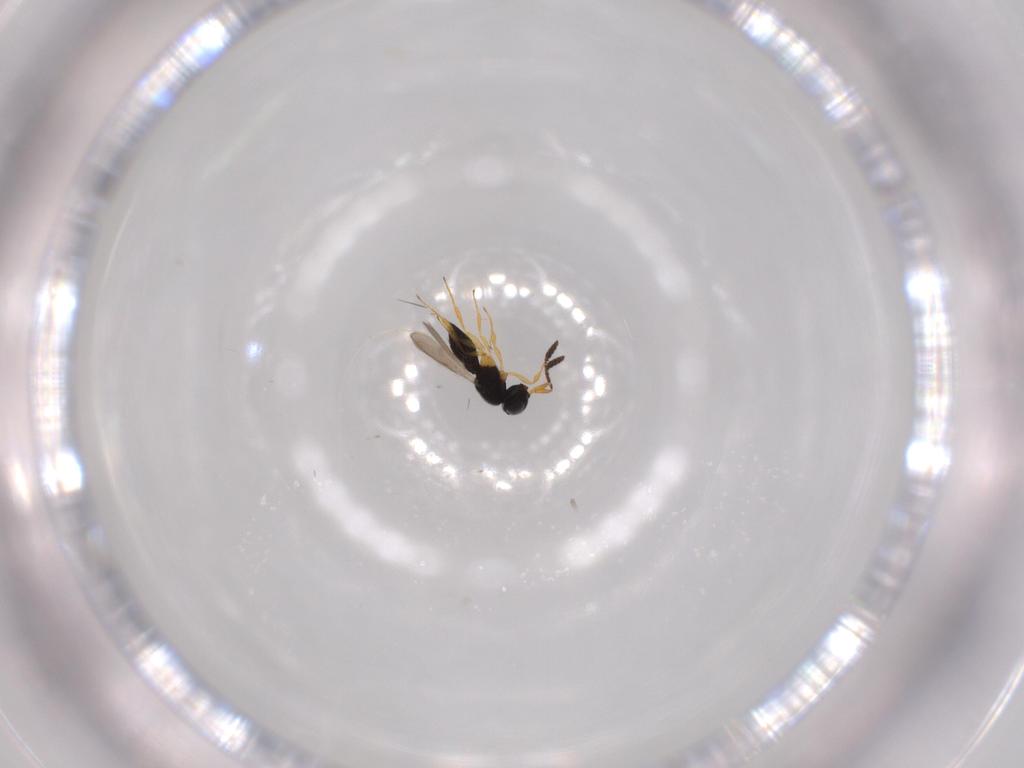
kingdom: Animalia
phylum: Arthropoda
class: Insecta
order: Hymenoptera
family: Scelionidae
